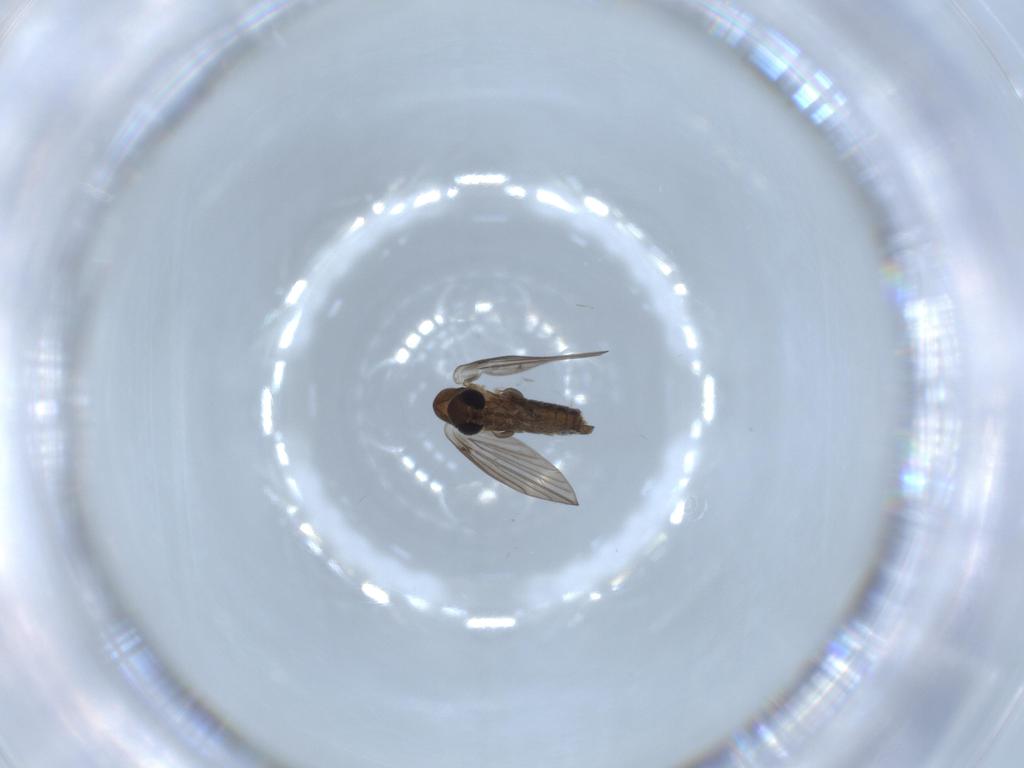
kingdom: Animalia
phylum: Arthropoda
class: Insecta
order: Diptera
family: Psychodidae
